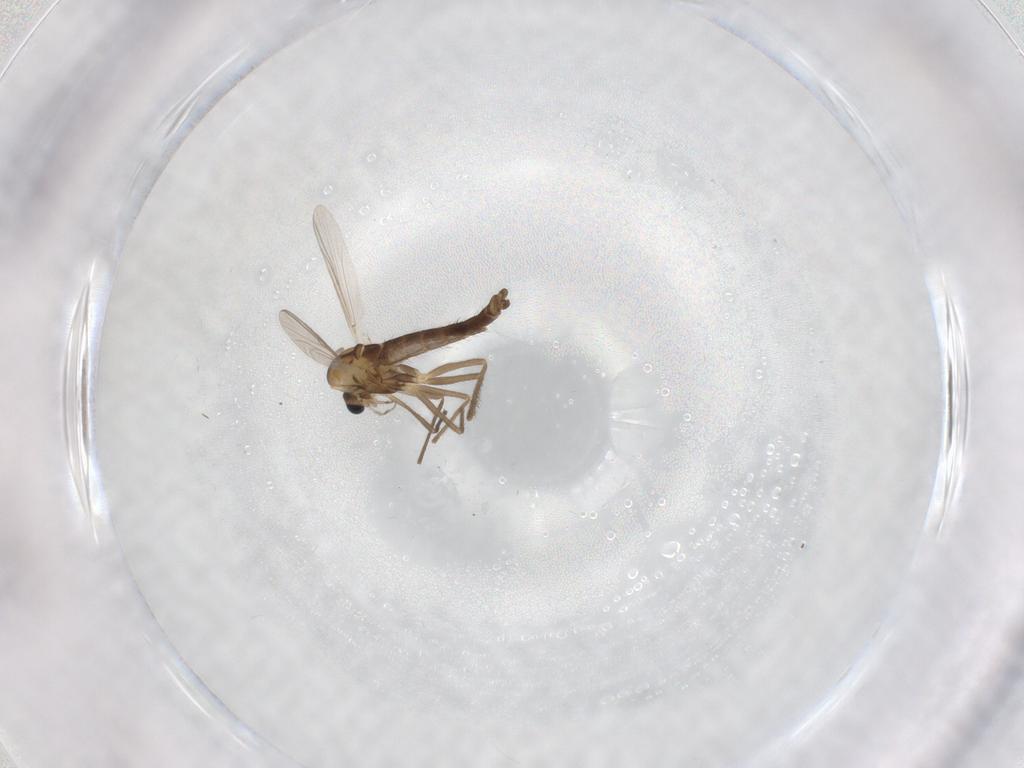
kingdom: Animalia
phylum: Arthropoda
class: Insecta
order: Diptera
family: Chironomidae
